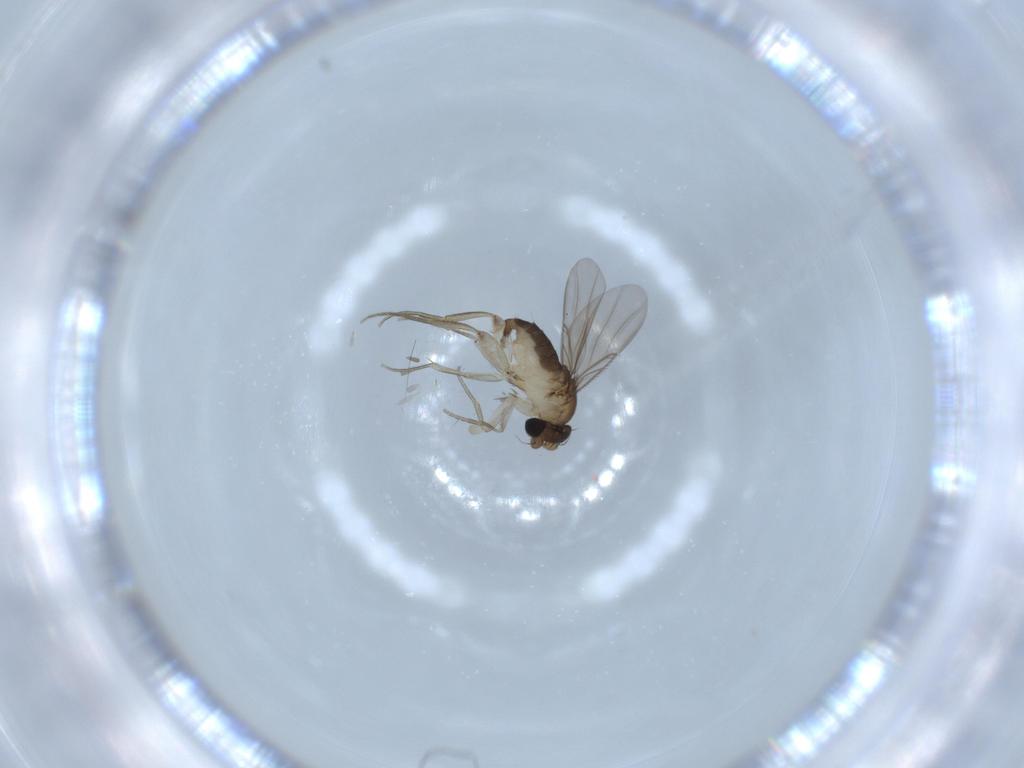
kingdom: Animalia
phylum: Arthropoda
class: Insecta
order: Diptera
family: Phoridae
